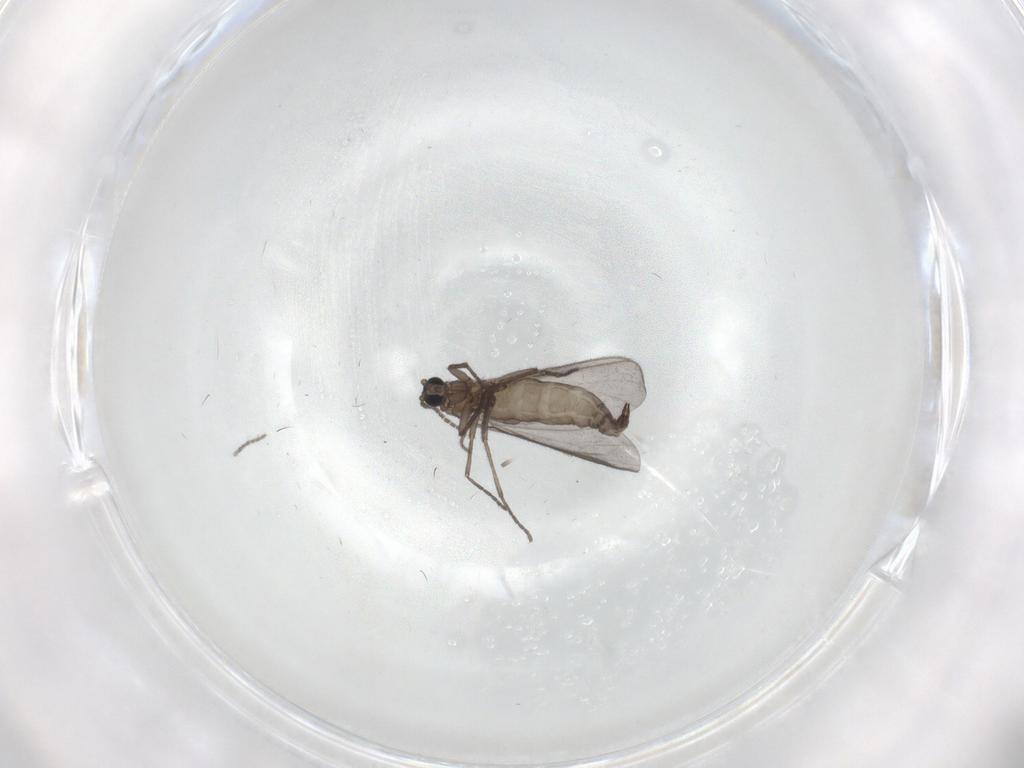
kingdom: Animalia
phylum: Arthropoda
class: Insecta
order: Diptera
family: Sciaridae
